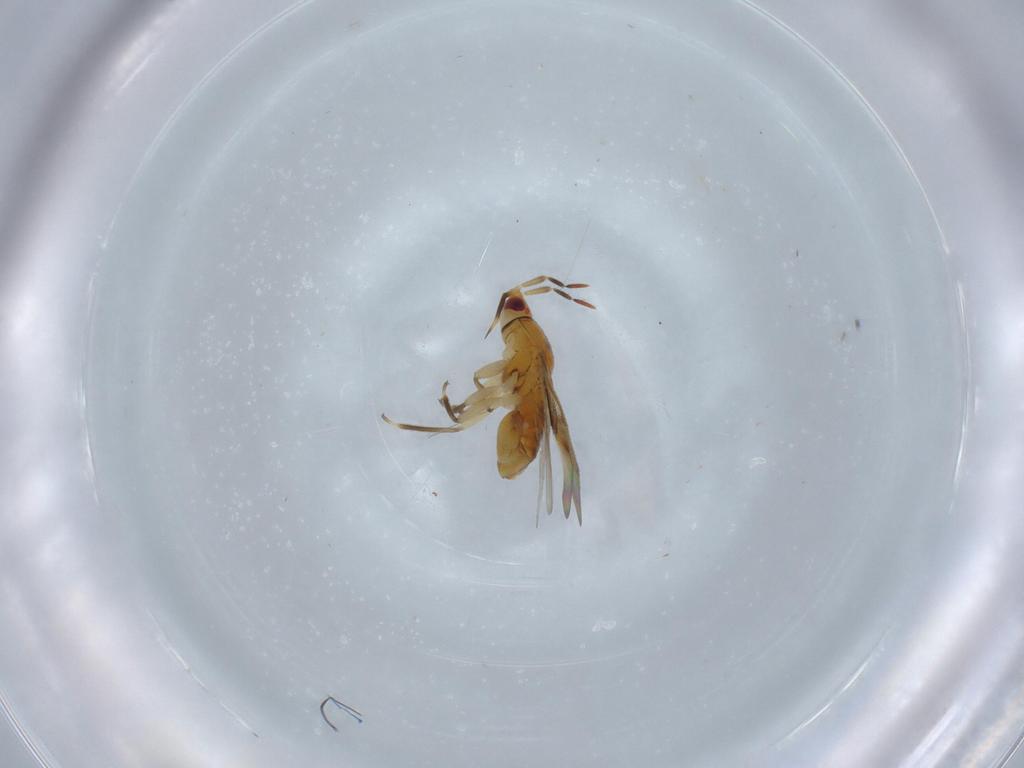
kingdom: Animalia
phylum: Arthropoda
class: Insecta
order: Hemiptera
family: Anthocoridae
